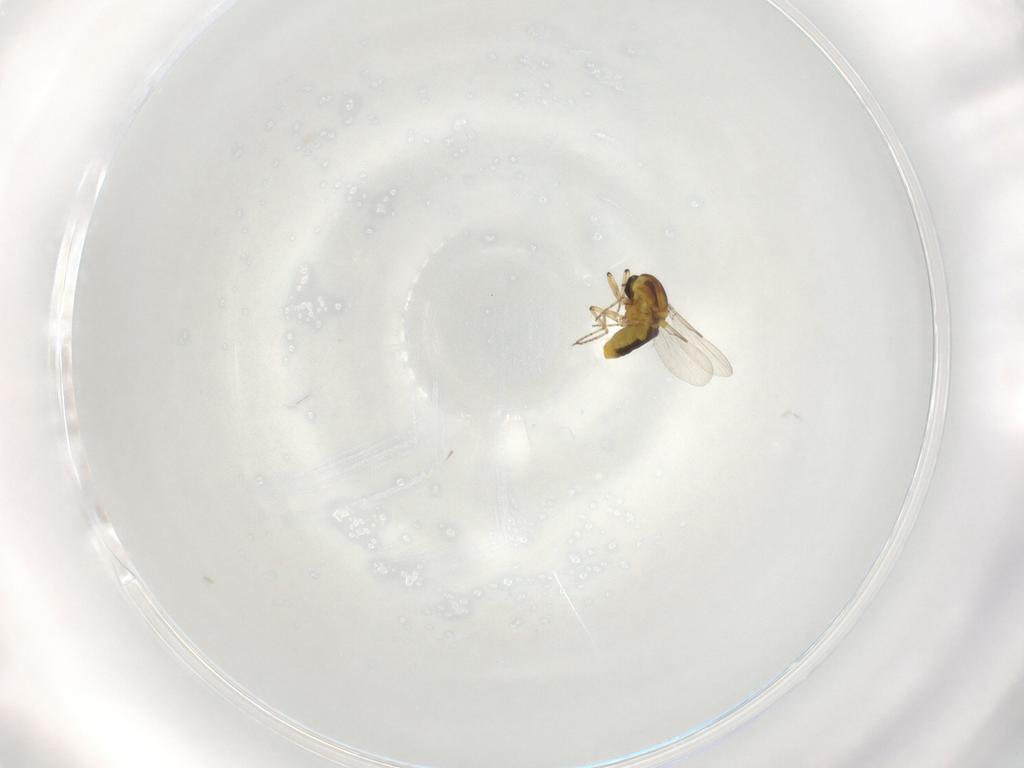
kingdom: Animalia
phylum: Arthropoda
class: Insecta
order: Diptera
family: Ceratopogonidae
